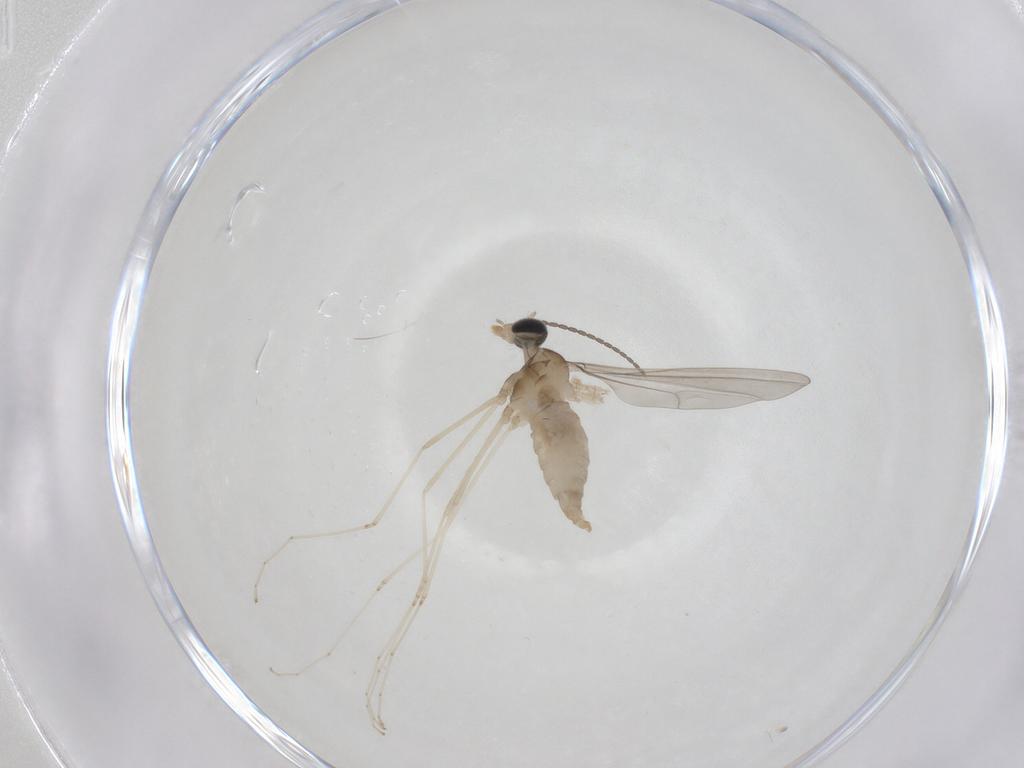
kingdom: Animalia
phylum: Arthropoda
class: Insecta
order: Diptera
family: Cecidomyiidae
